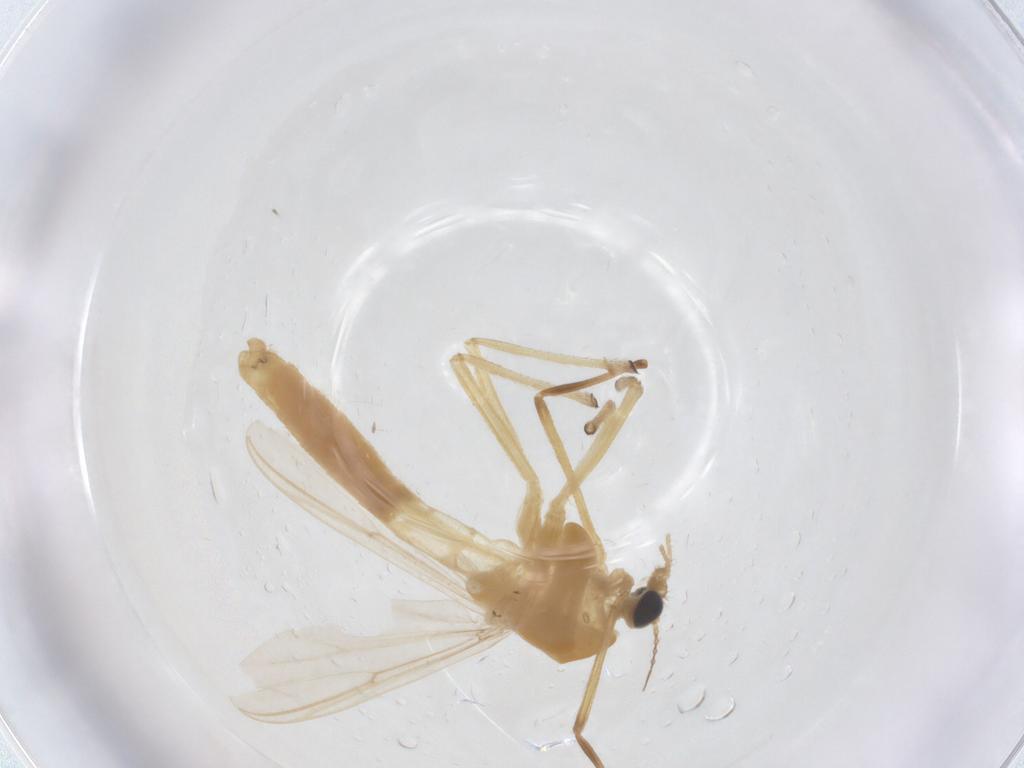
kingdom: Animalia
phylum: Arthropoda
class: Insecta
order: Diptera
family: Chironomidae
